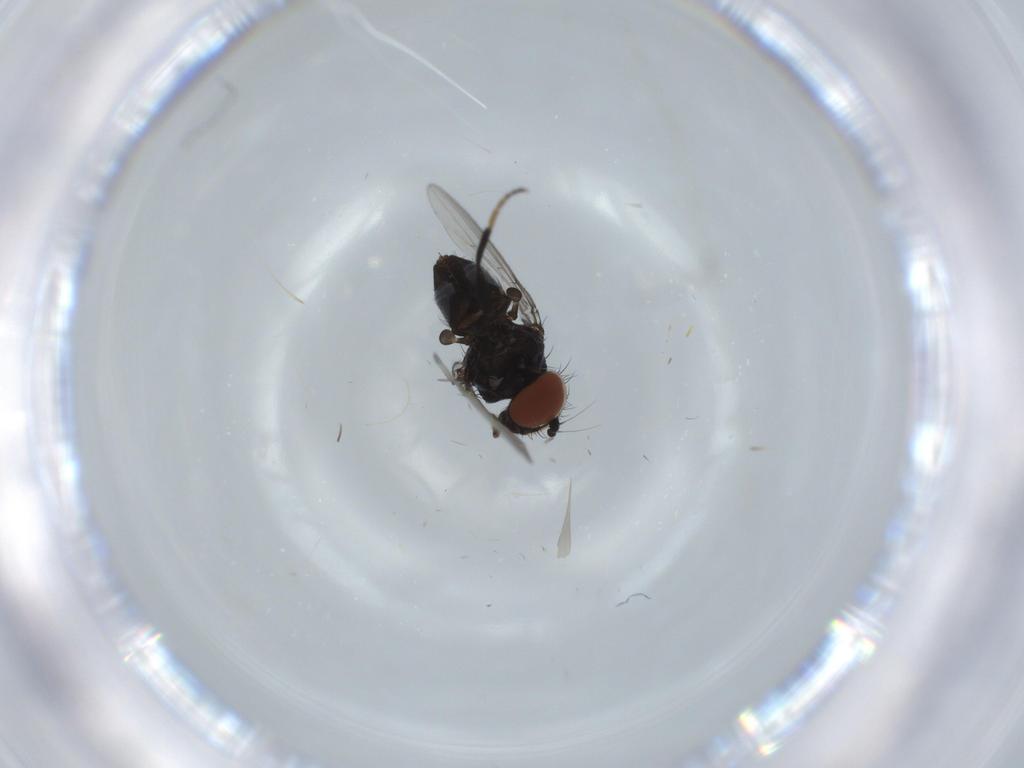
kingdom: Animalia
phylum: Arthropoda
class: Insecta
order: Diptera
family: Milichiidae
